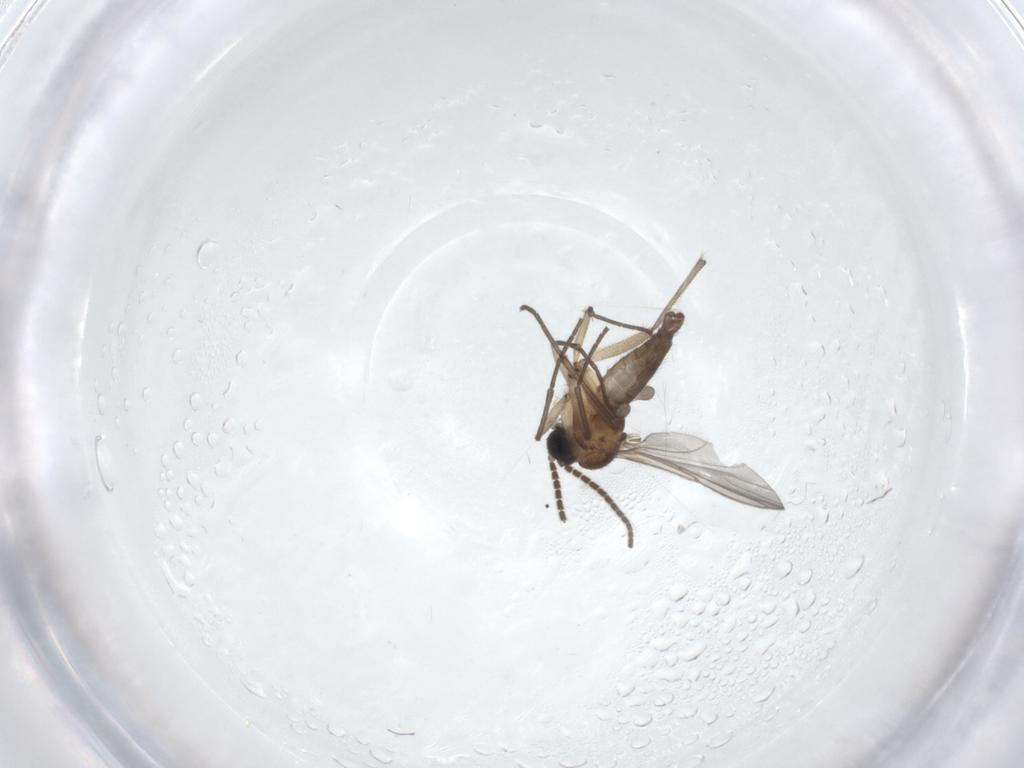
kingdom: Animalia
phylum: Arthropoda
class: Insecta
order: Diptera
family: Sciaridae
